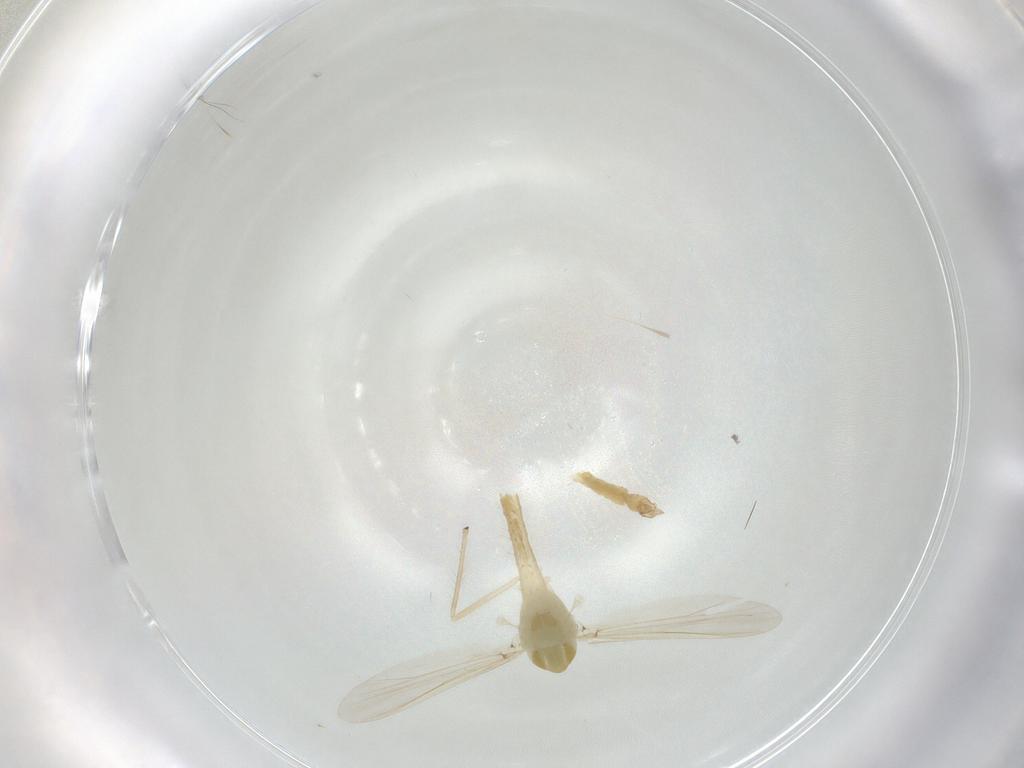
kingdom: Animalia
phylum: Arthropoda
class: Insecta
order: Diptera
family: Chironomidae
